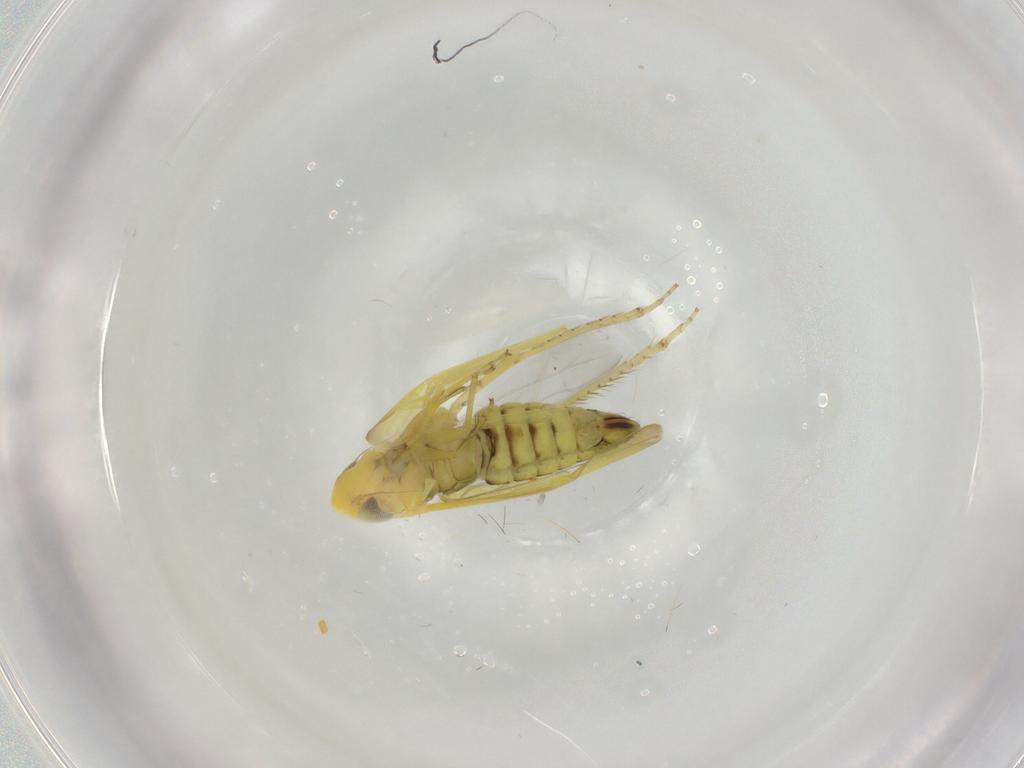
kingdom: Animalia
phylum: Arthropoda
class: Insecta
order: Hemiptera
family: Cicadellidae
